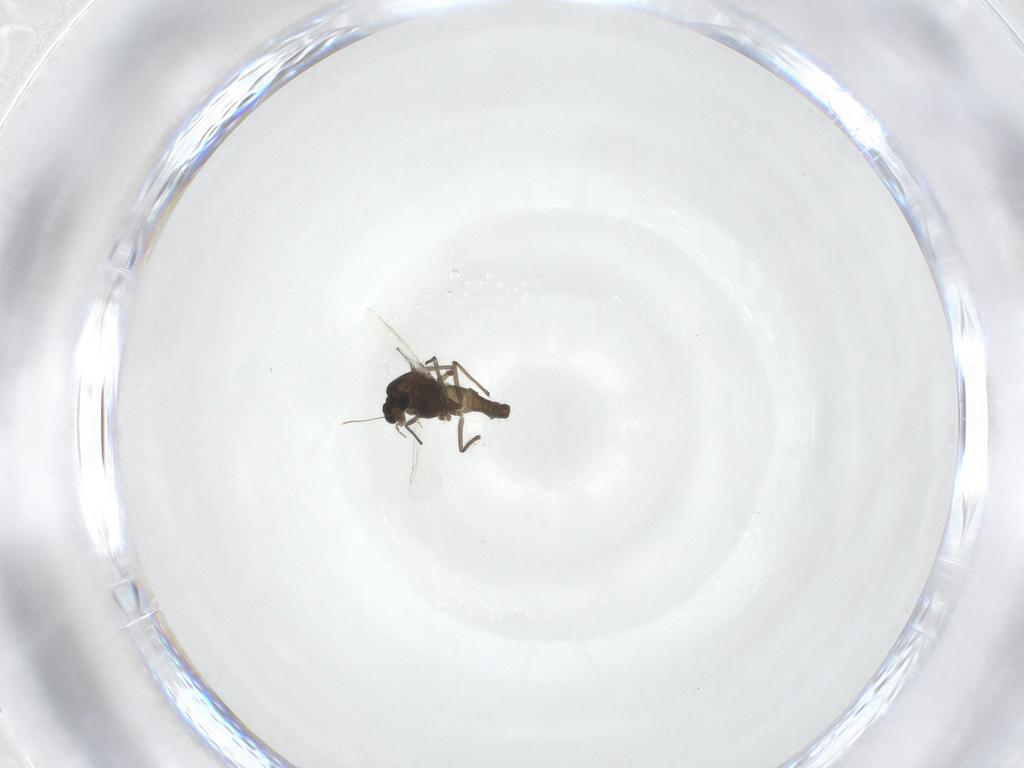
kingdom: Animalia
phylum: Arthropoda
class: Insecta
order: Diptera
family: Chironomidae
